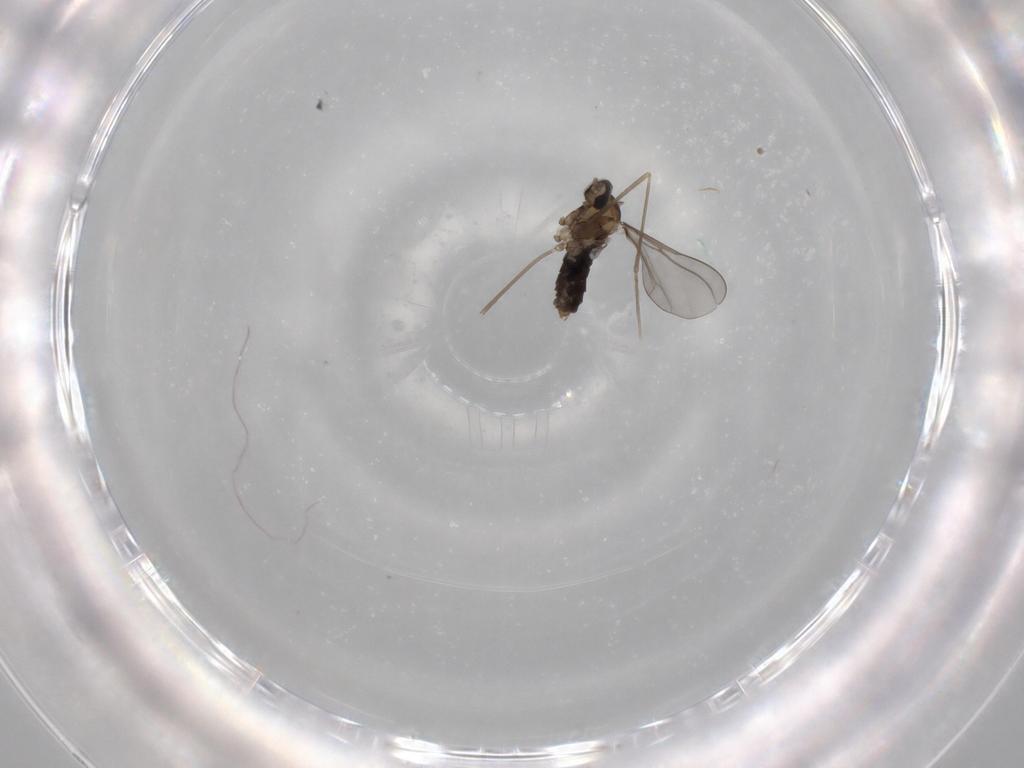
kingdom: Animalia
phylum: Arthropoda
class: Insecta
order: Diptera
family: Cecidomyiidae
